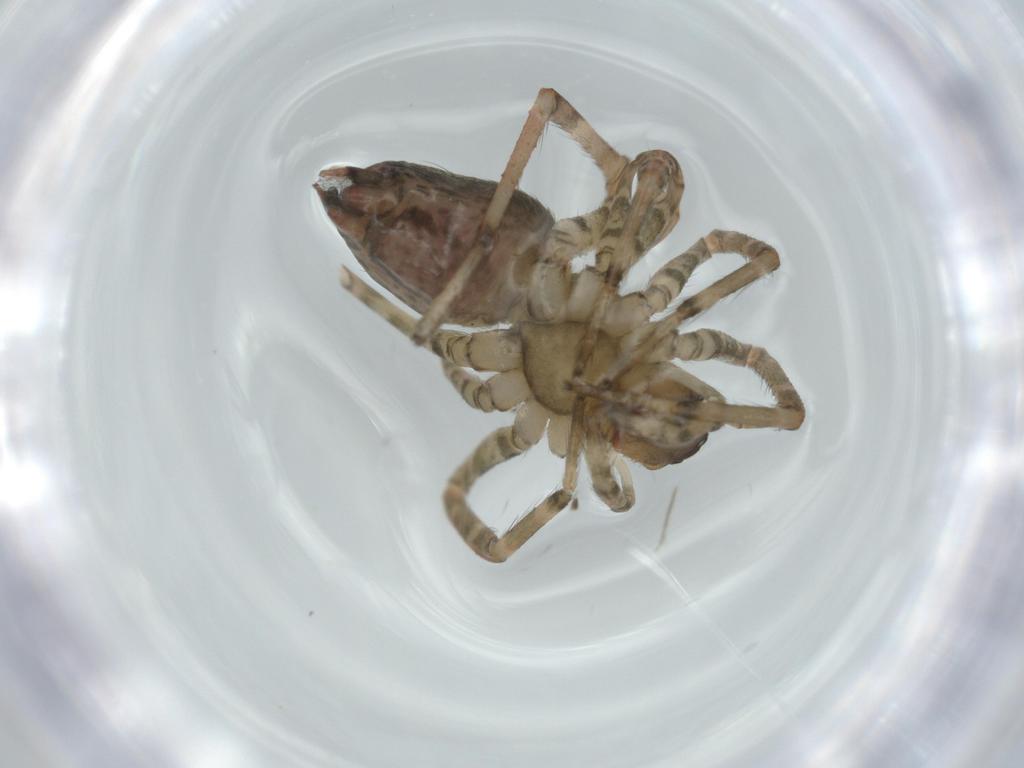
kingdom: Animalia
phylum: Arthropoda
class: Arachnida
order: Araneae
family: Agelenidae
